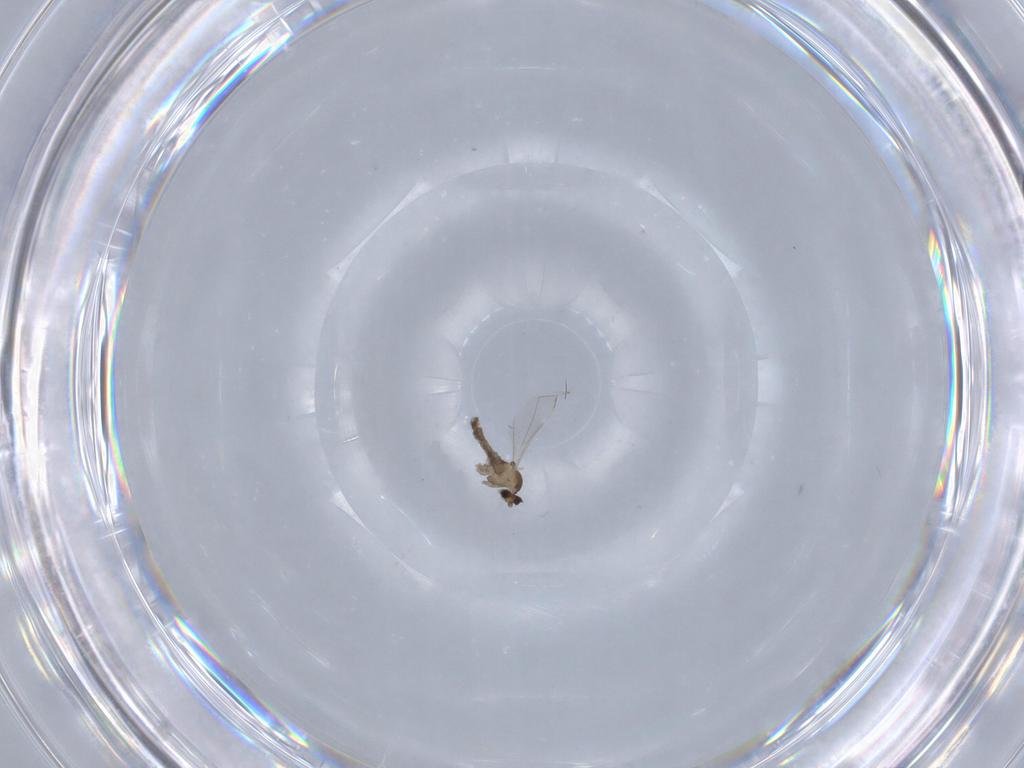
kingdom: Animalia
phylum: Arthropoda
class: Insecta
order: Diptera
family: Cecidomyiidae
